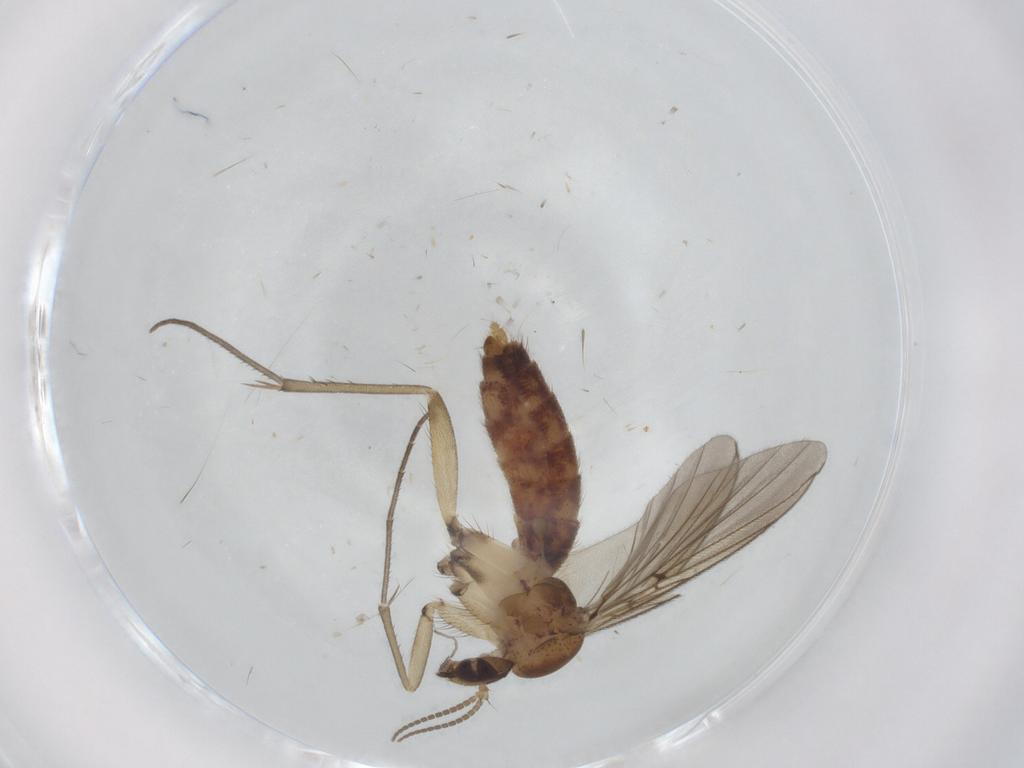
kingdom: Animalia
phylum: Arthropoda
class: Insecta
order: Diptera
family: Mycetophilidae
